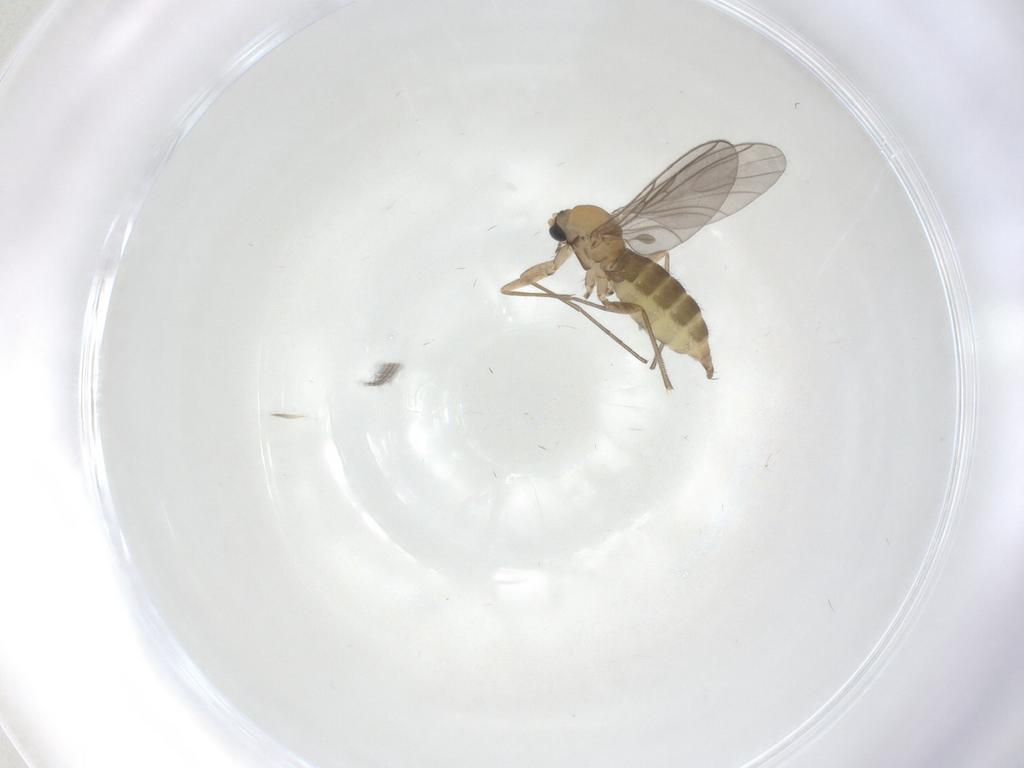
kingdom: Animalia
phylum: Arthropoda
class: Insecta
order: Diptera
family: Sciaridae
